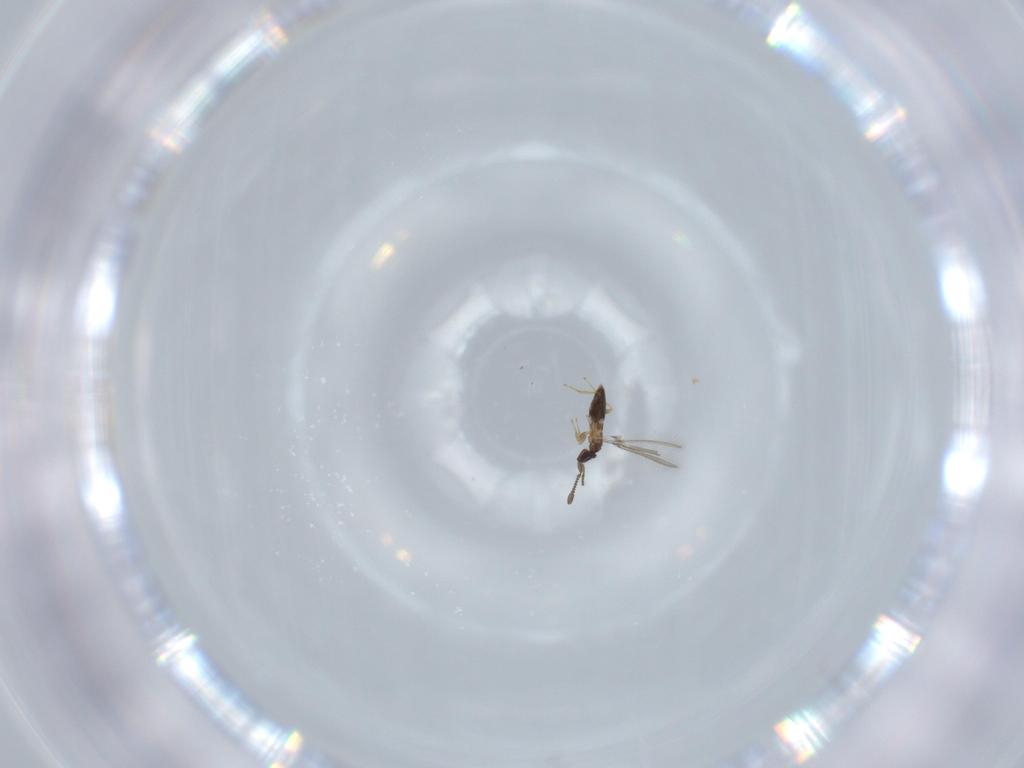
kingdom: Animalia
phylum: Arthropoda
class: Insecta
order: Hymenoptera
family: Mymaridae
